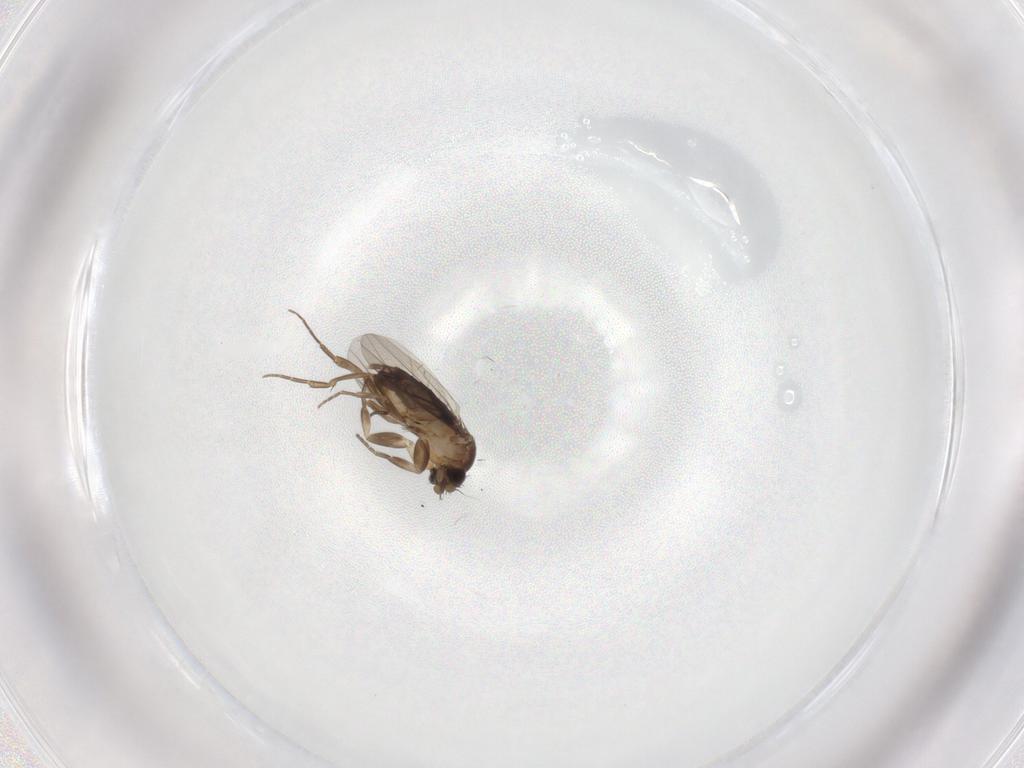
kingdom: Animalia
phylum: Arthropoda
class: Insecta
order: Diptera
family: Phoridae
